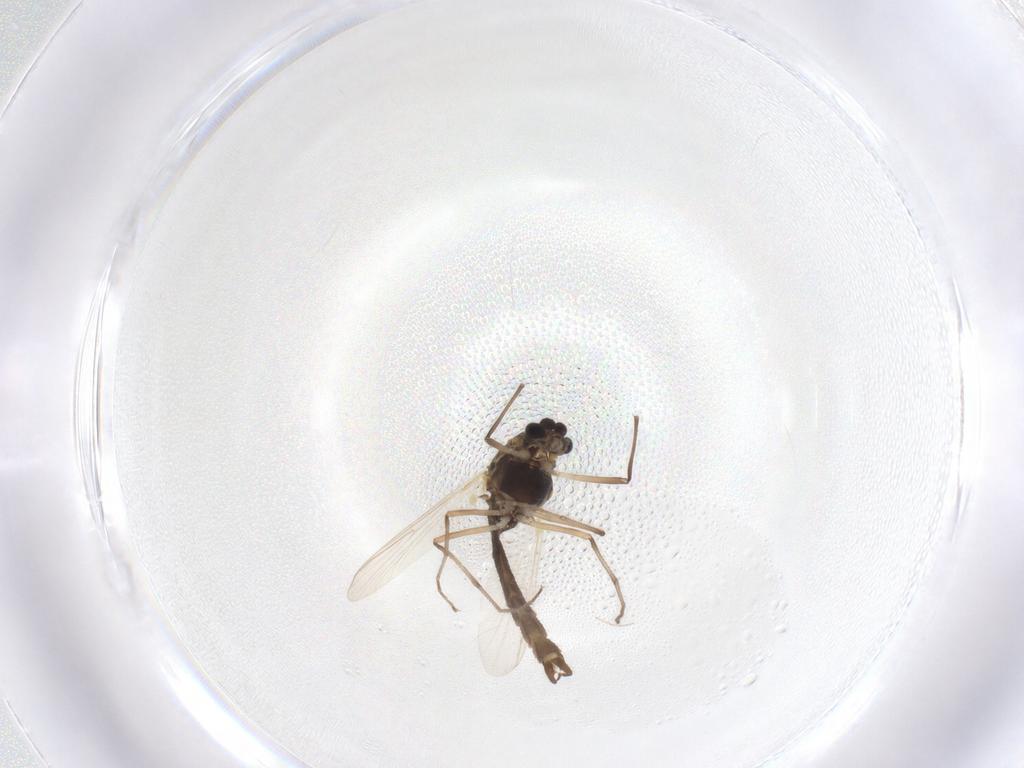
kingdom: Animalia
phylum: Arthropoda
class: Insecta
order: Diptera
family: Chironomidae
